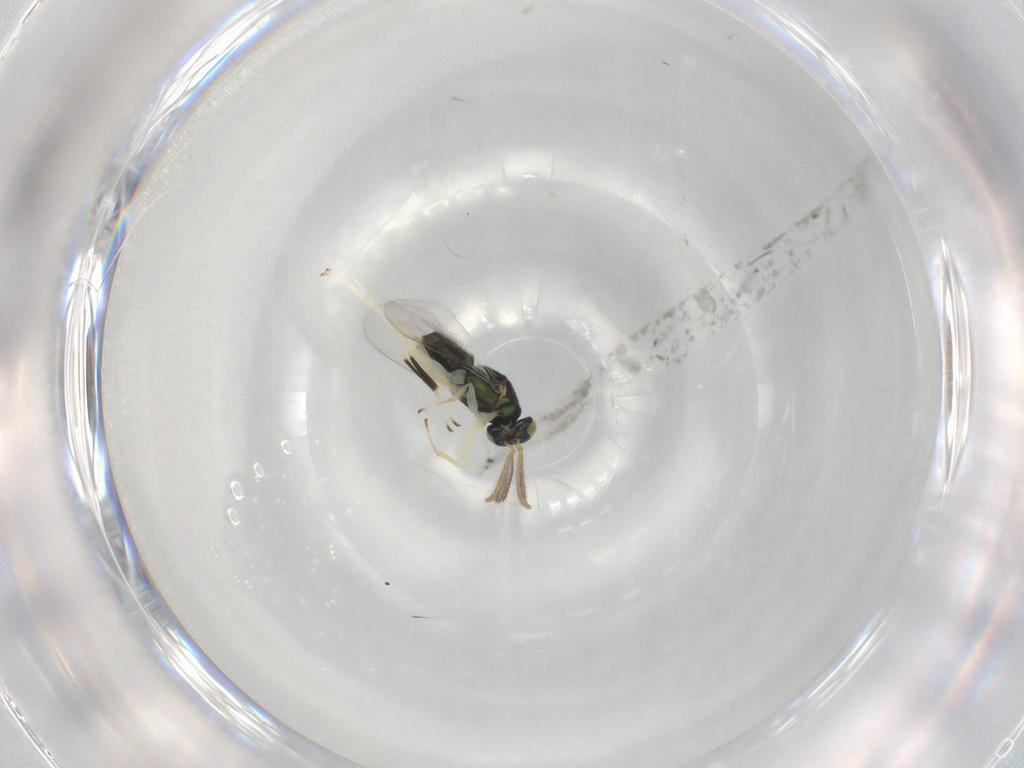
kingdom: Animalia
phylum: Arthropoda
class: Insecta
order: Hymenoptera
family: Encyrtidae
